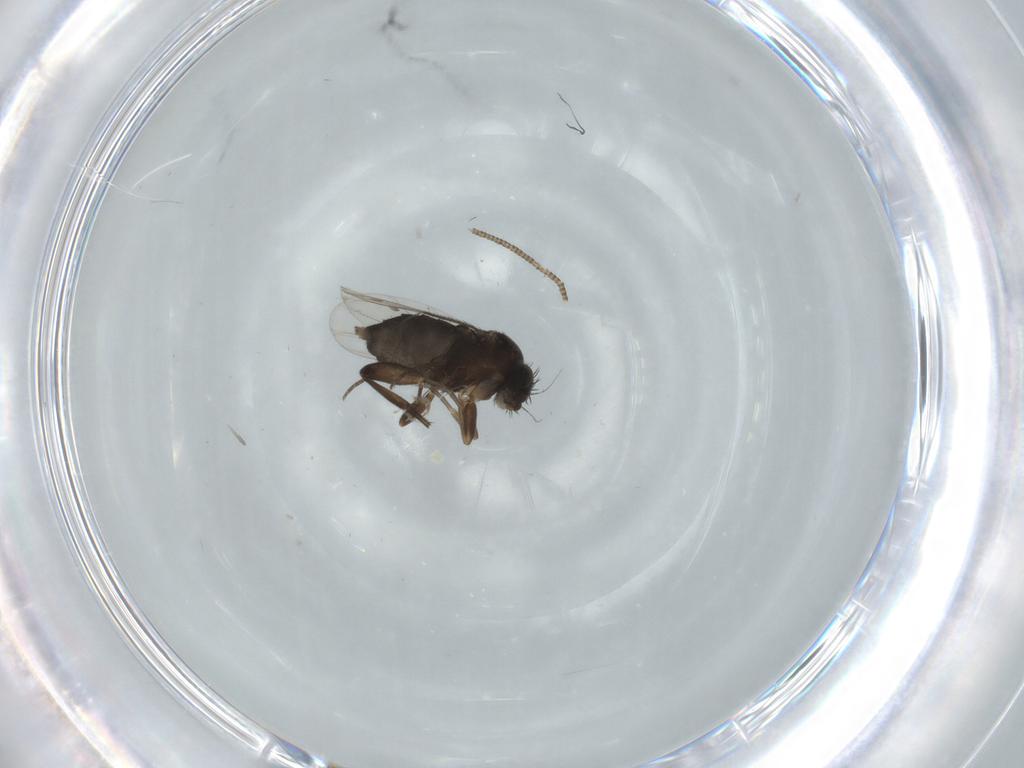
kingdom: Animalia
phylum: Arthropoda
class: Insecta
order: Diptera
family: Phoridae
